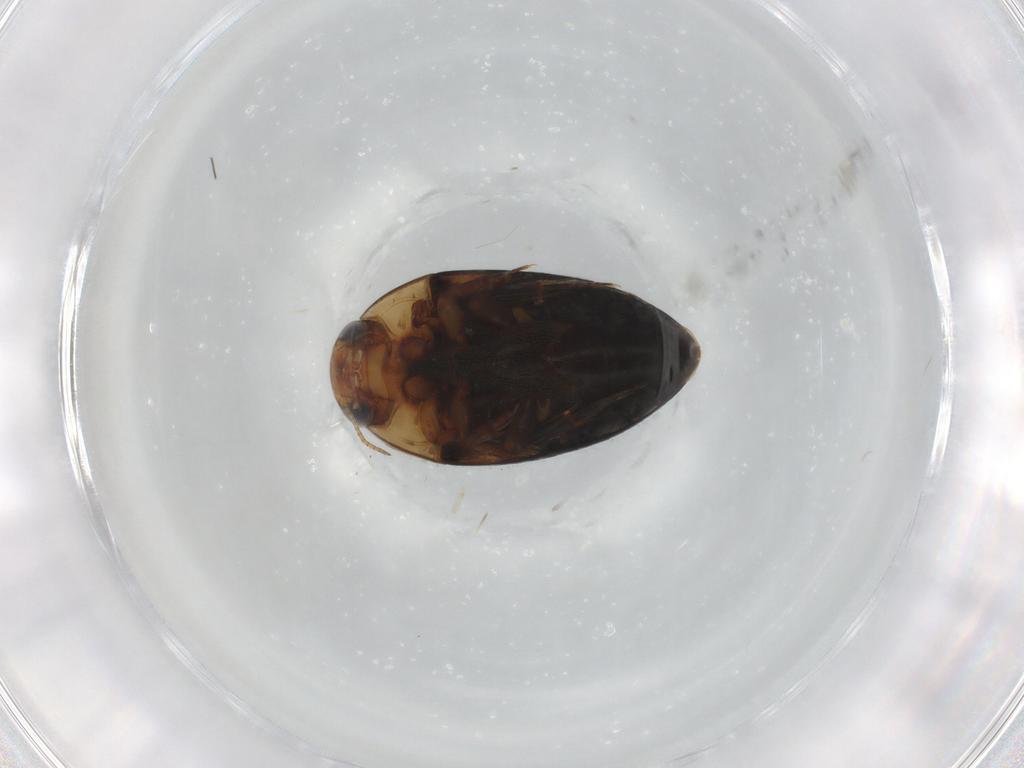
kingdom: Animalia
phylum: Arthropoda
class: Insecta
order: Coleoptera
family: Noteridae
